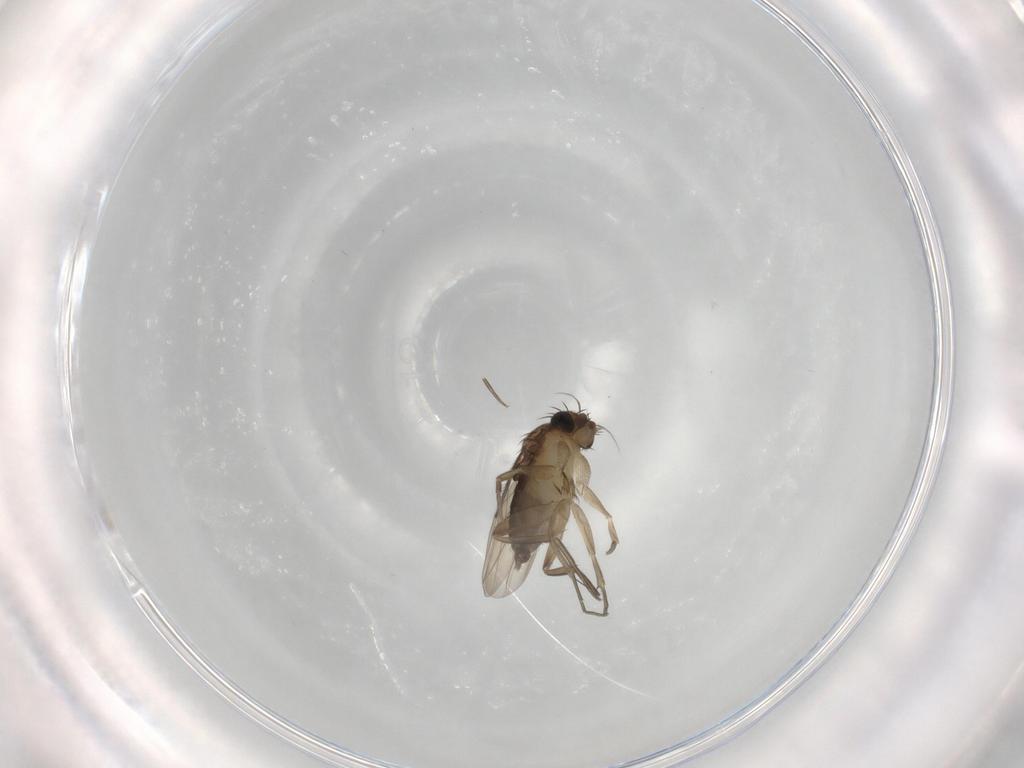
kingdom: Animalia
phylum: Arthropoda
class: Insecta
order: Diptera
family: Phoridae
